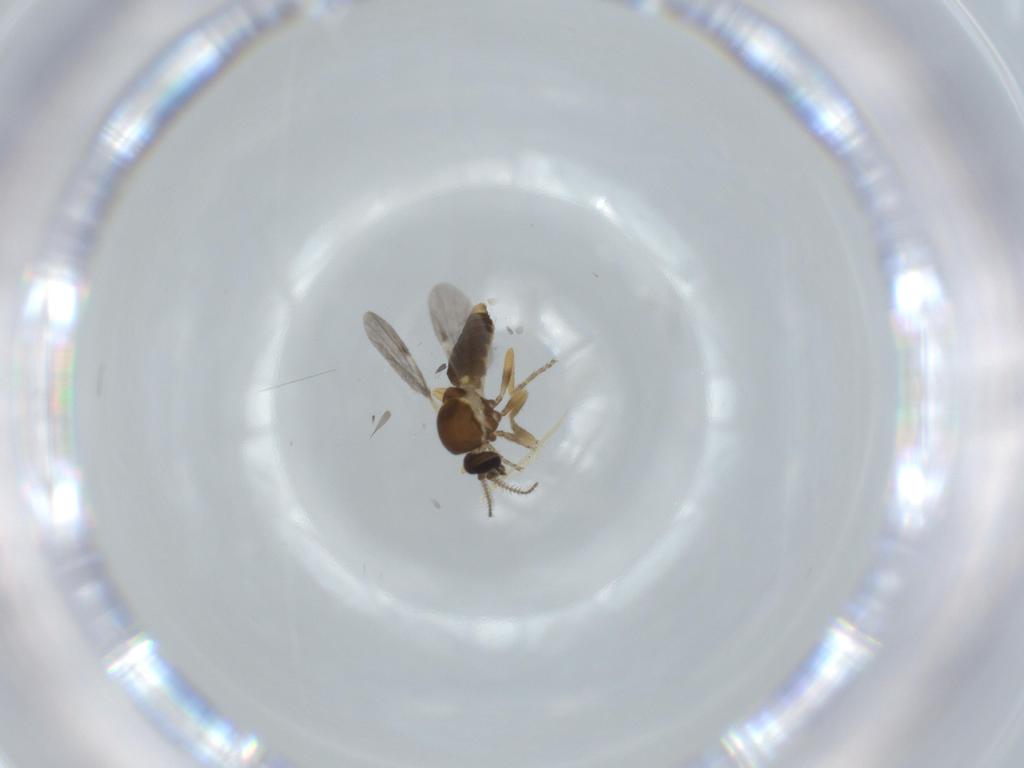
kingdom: Animalia
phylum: Arthropoda
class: Insecta
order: Diptera
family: Ceratopogonidae
